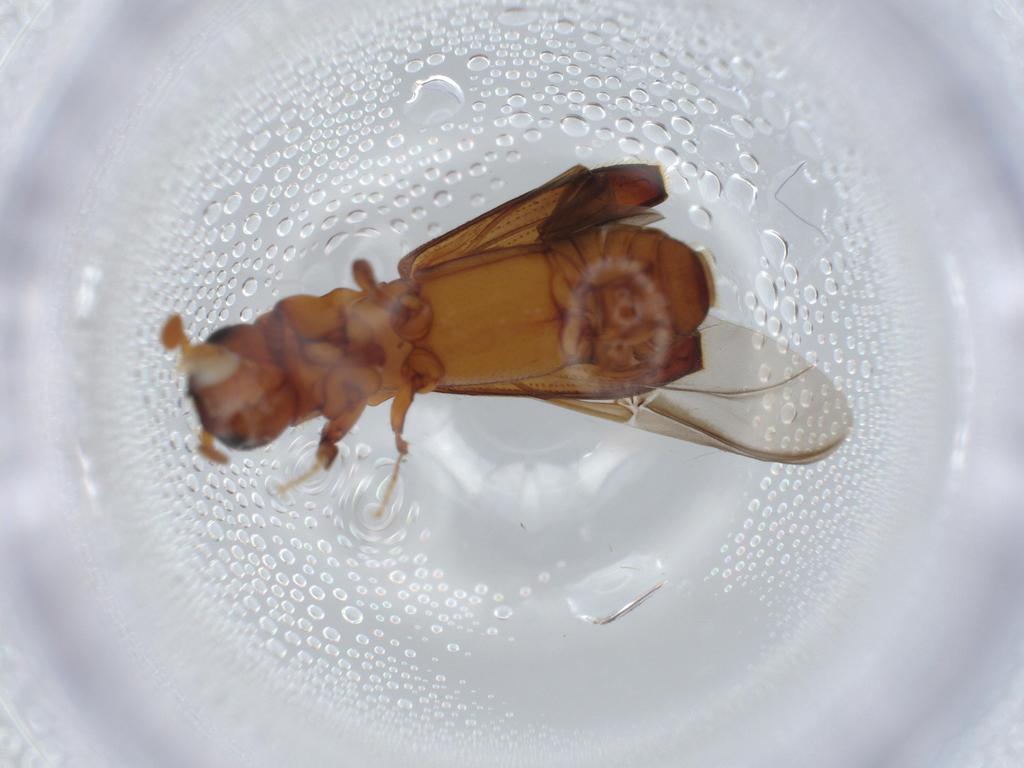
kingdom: Animalia
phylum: Arthropoda
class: Insecta
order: Coleoptera
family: Curculionidae
